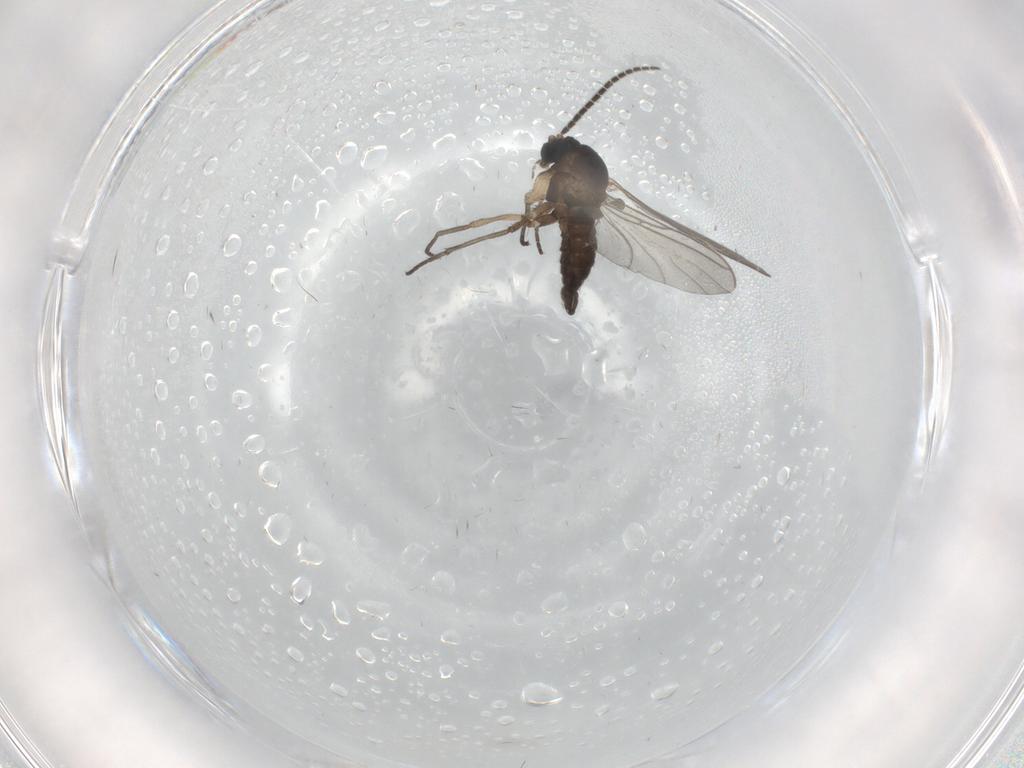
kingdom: Animalia
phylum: Arthropoda
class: Insecta
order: Diptera
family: Sciaridae
